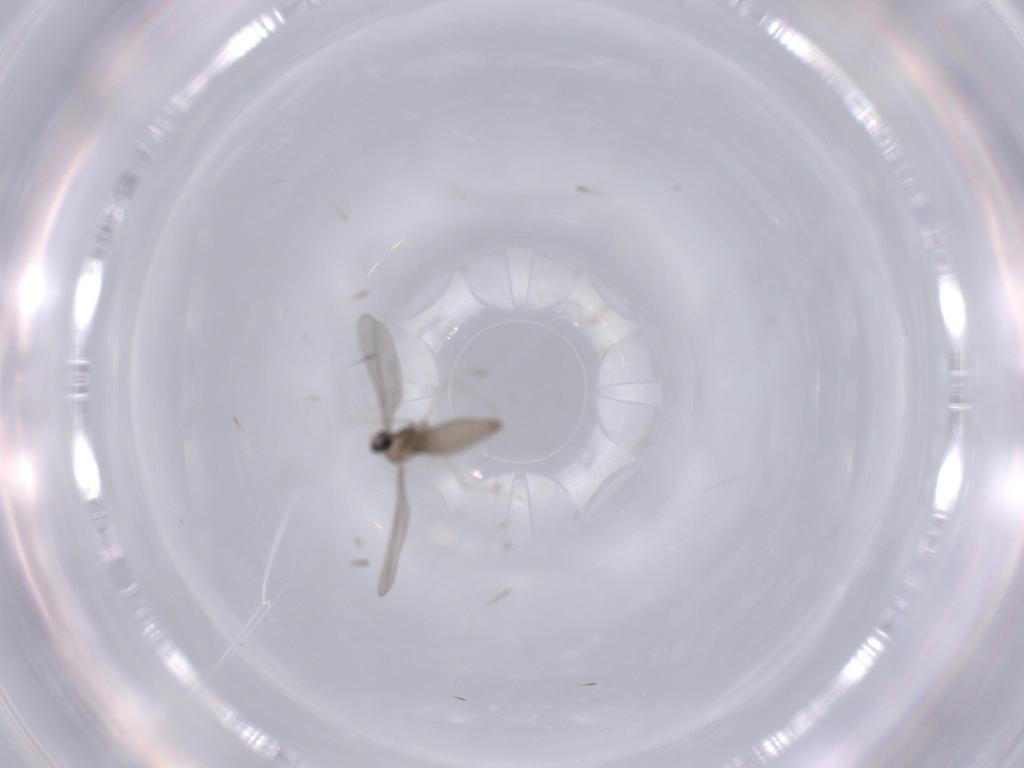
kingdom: Animalia
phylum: Arthropoda
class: Insecta
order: Diptera
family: Cecidomyiidae
